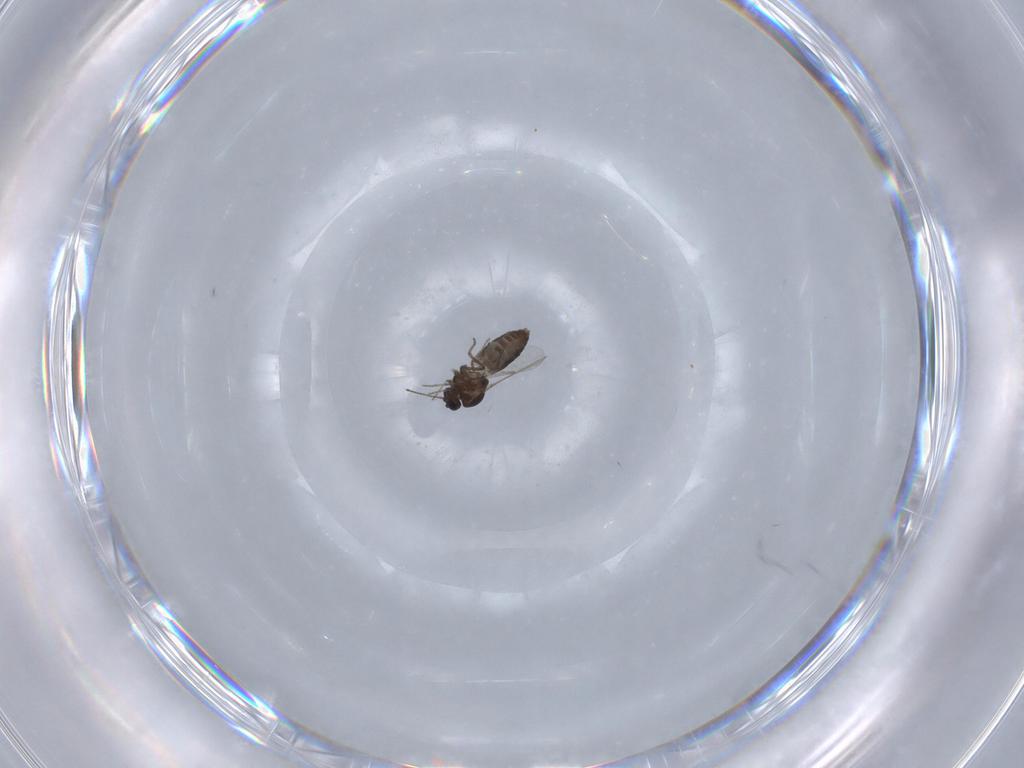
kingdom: Animalia
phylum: Arthropoda
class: Insecta
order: Diptera
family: Ceratopogonidae
